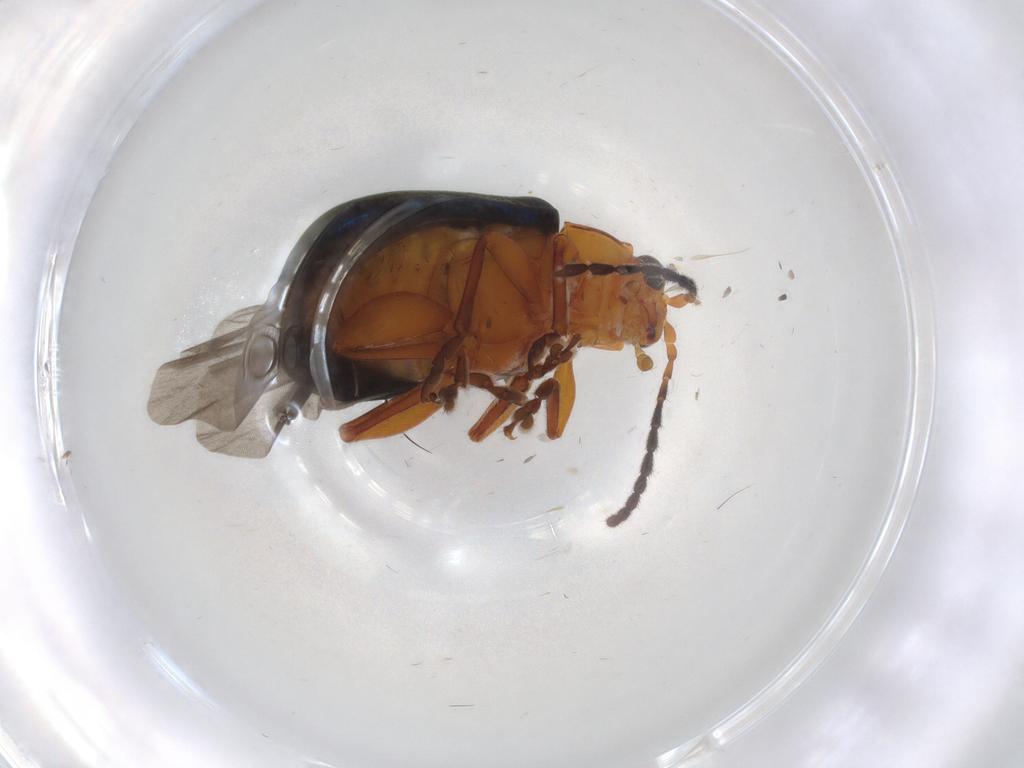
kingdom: Animalia
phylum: Arthropoda
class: Insecta
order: Coleoptera
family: Chrysomelidae
